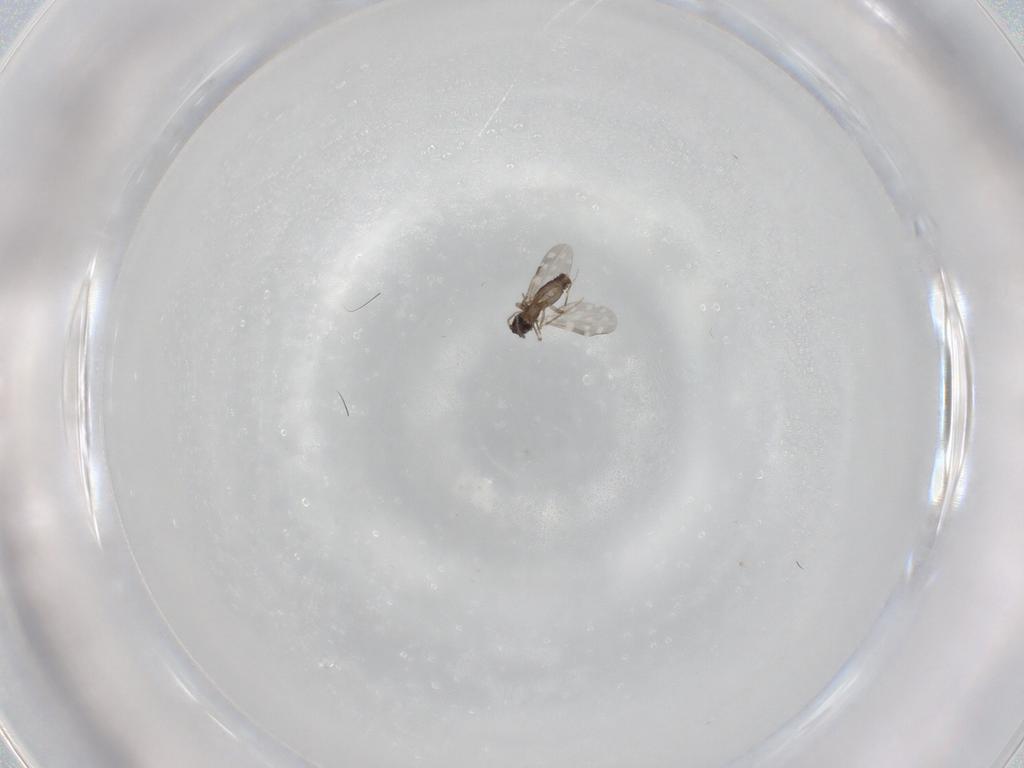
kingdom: Animalia
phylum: Arthropoda
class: Insecta
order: Diptera
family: Ceratopogonidae
